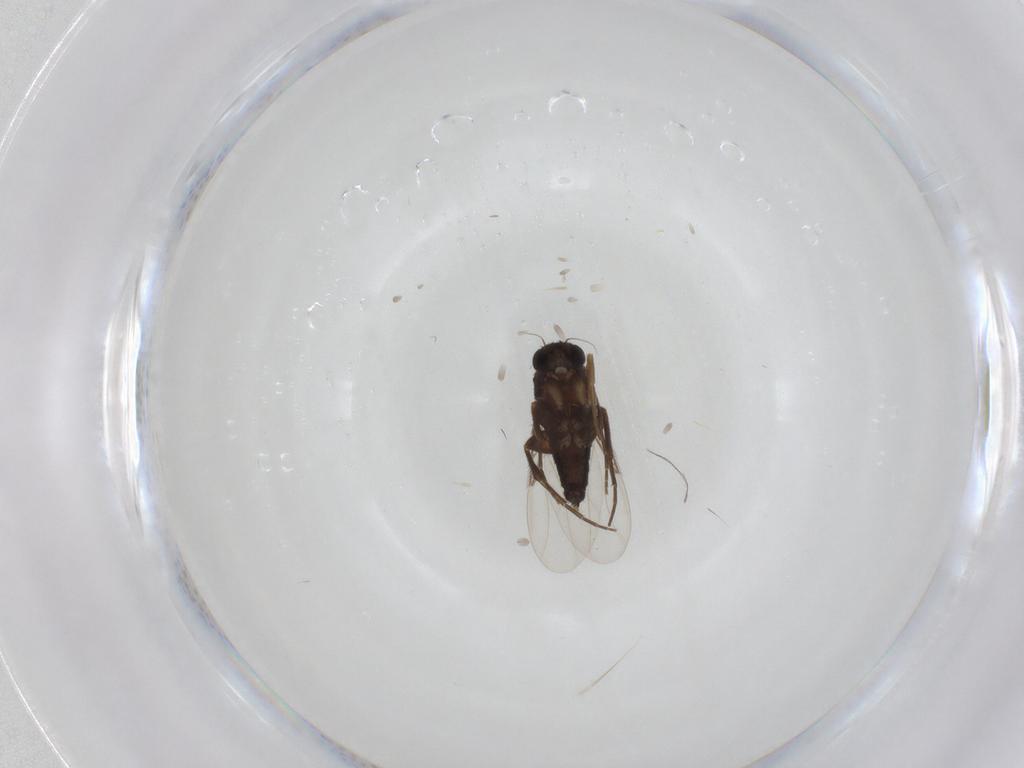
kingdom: Animalia
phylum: Arthropoda
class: Insecta
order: Diptera
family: Phoridae
